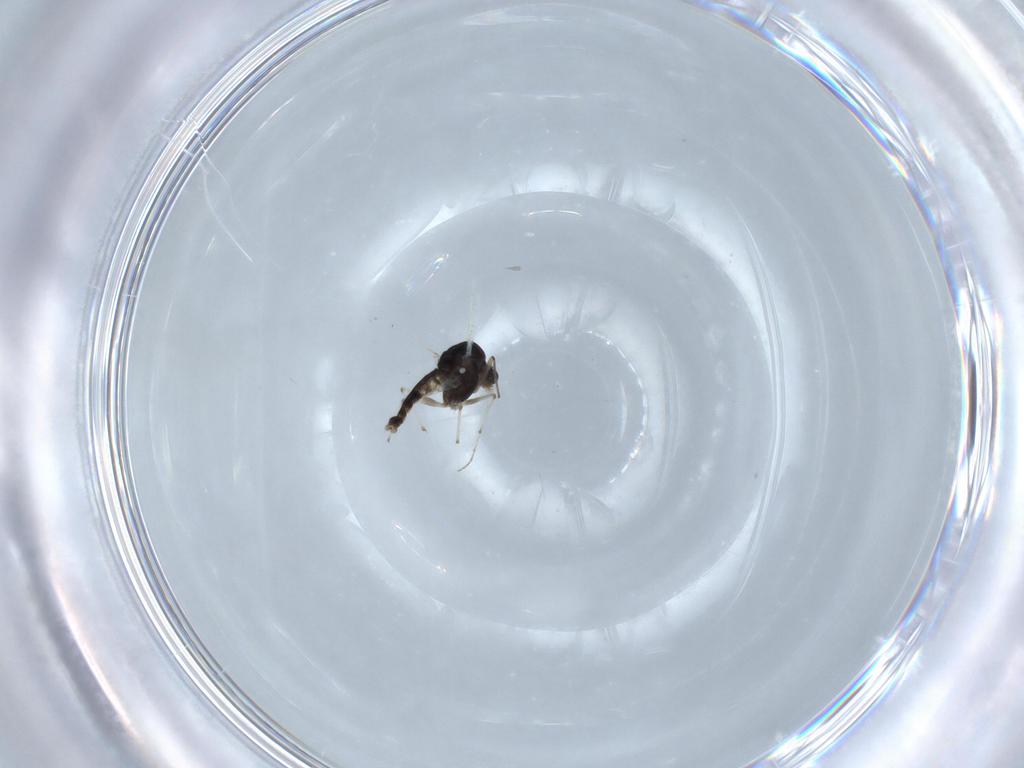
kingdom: Animalia
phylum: Arthropoda
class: Insecta
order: Diptera
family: Chironomidae
